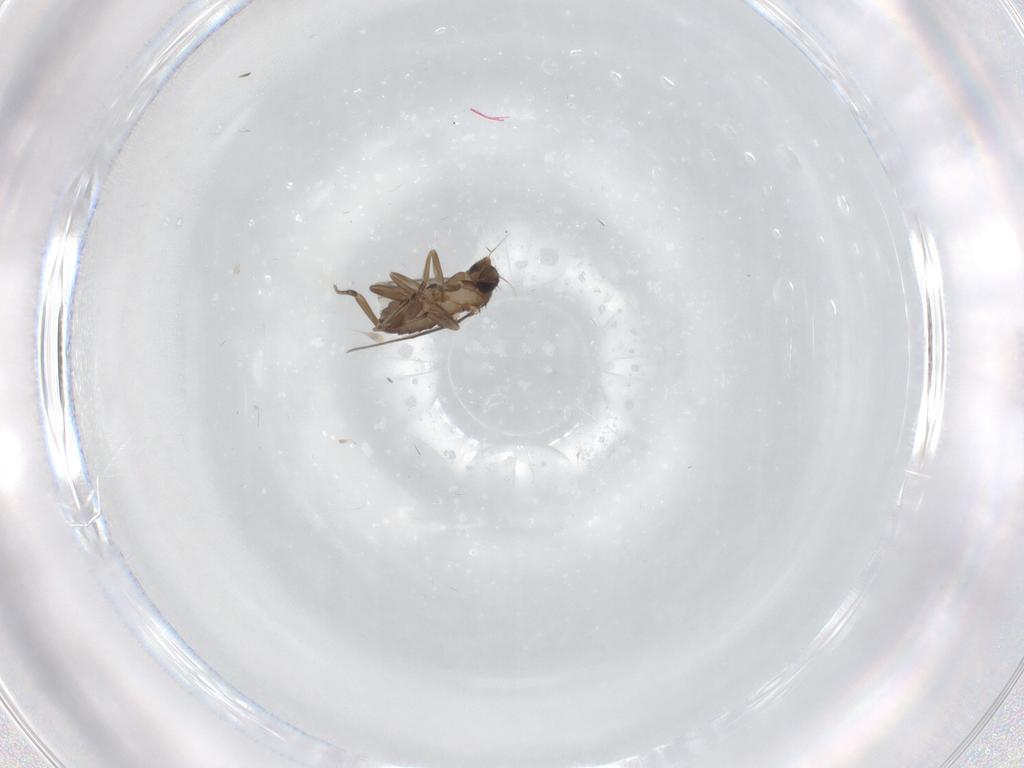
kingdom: Animalia
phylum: Arthropoda
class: Insecta
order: Diptera
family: Phoridae
